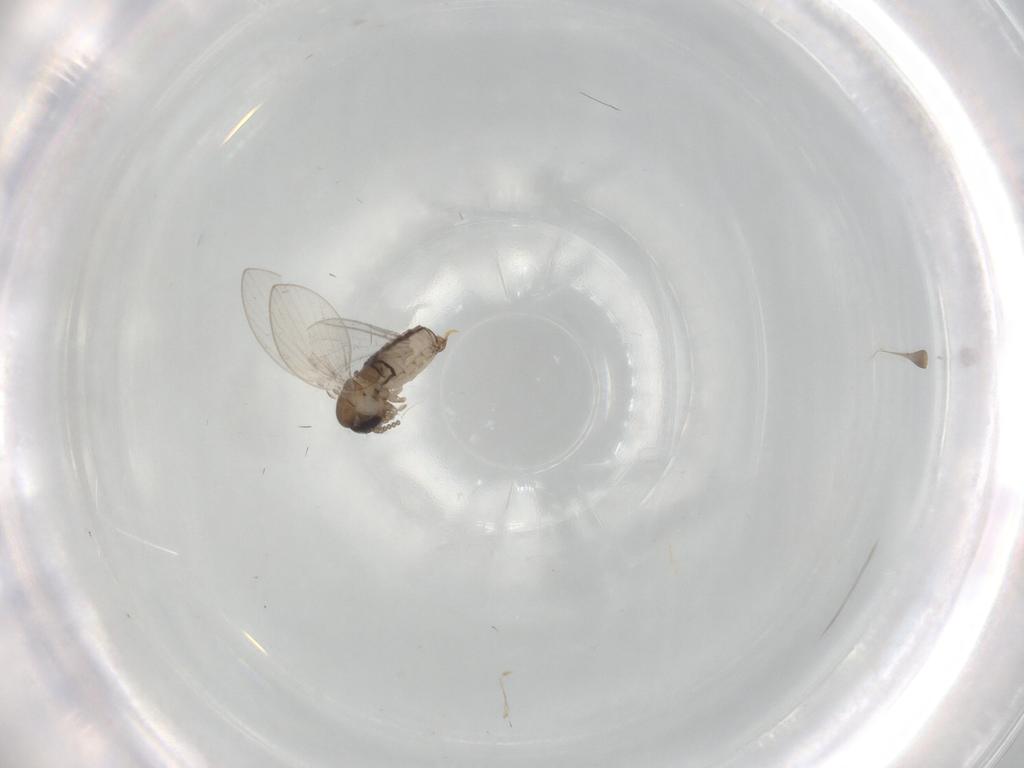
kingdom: Animalia
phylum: Arthropoda
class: Insecta
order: Diptera
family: Psychodidae
